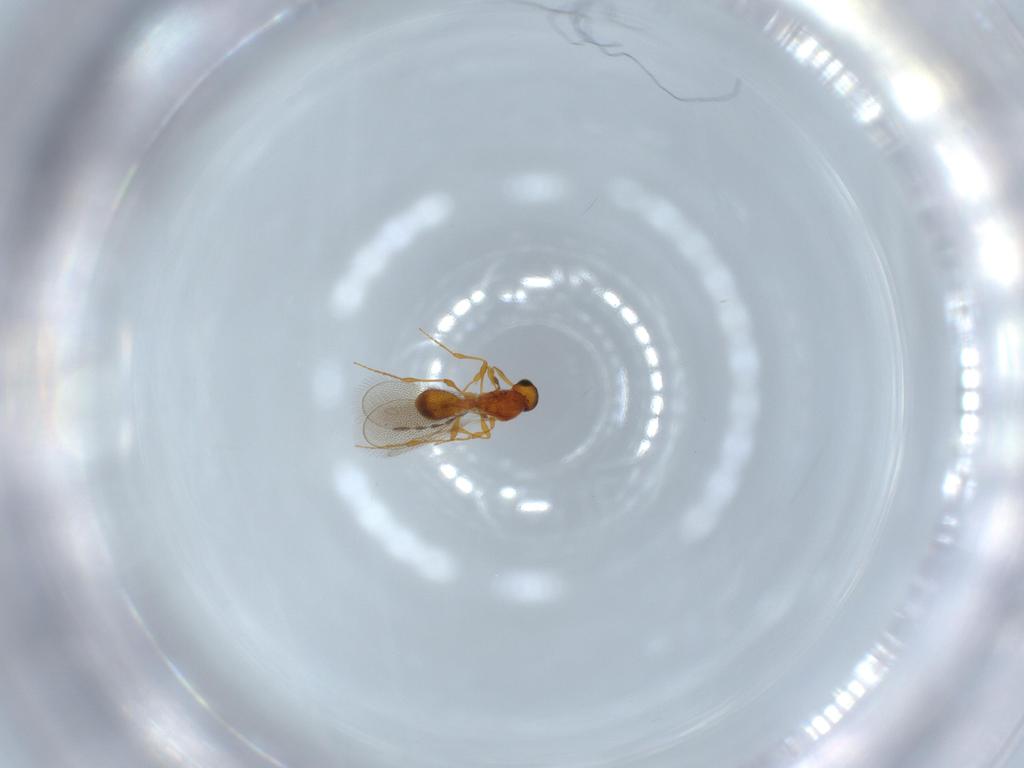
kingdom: Animalia
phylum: Arthropoda
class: Insecta
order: Hymenoptera
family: Platygastridae
